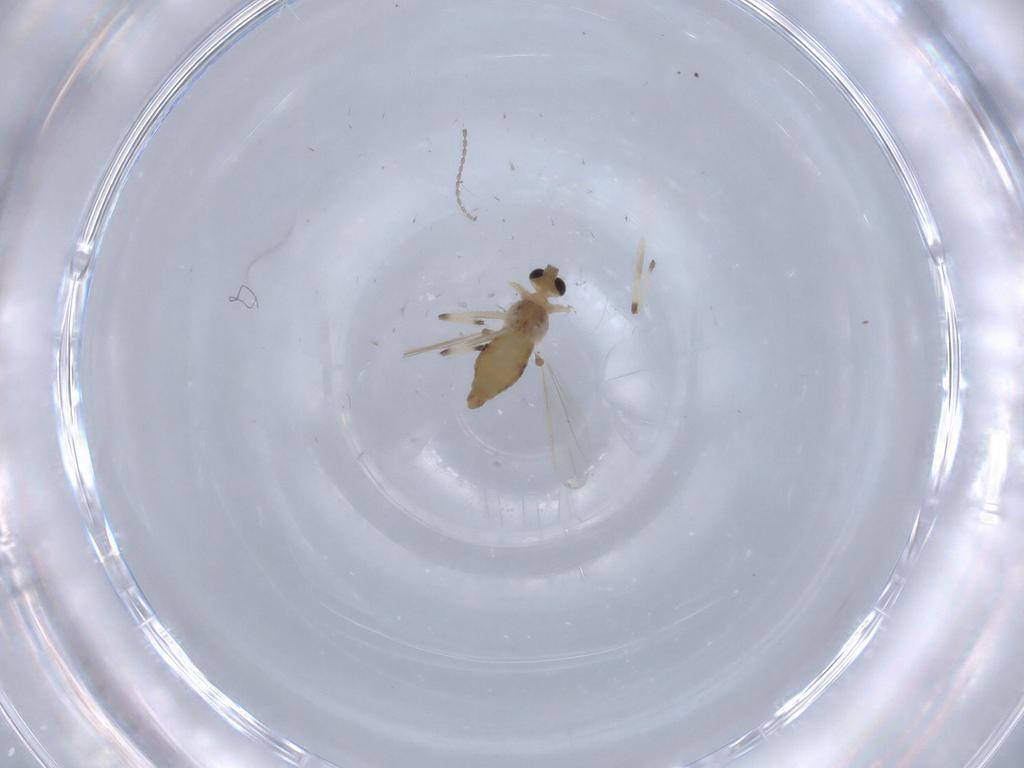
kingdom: Animalia
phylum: Arthropoda
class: Insecta
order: Diptera
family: Chironomidae
